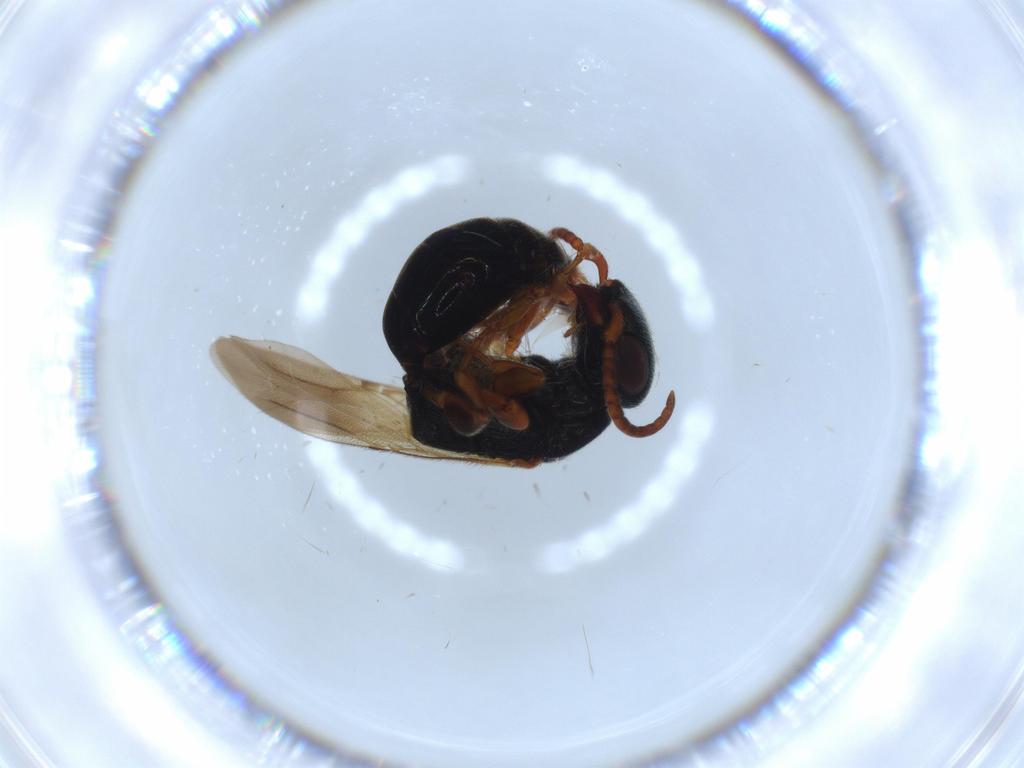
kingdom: Animalia
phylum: Arthropoda
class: Insecta
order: Hymenoptera
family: Bethylidae
